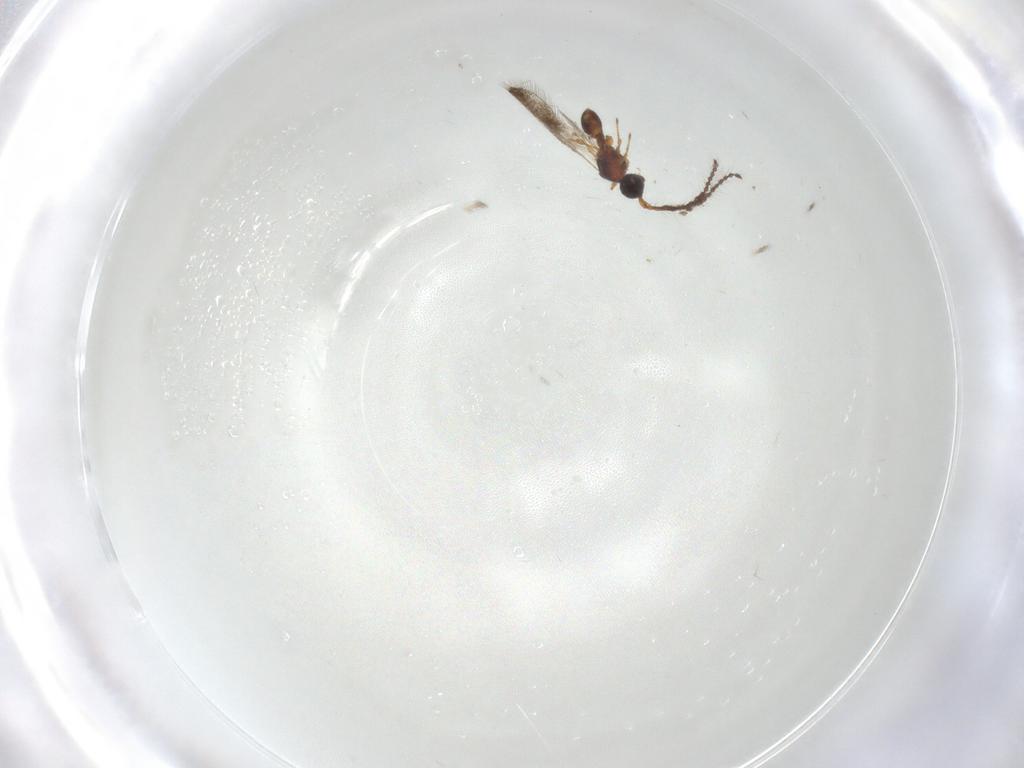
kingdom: Animalia
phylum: Arthropoda
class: Insecta
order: Hymenoptera
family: Diapriidae
